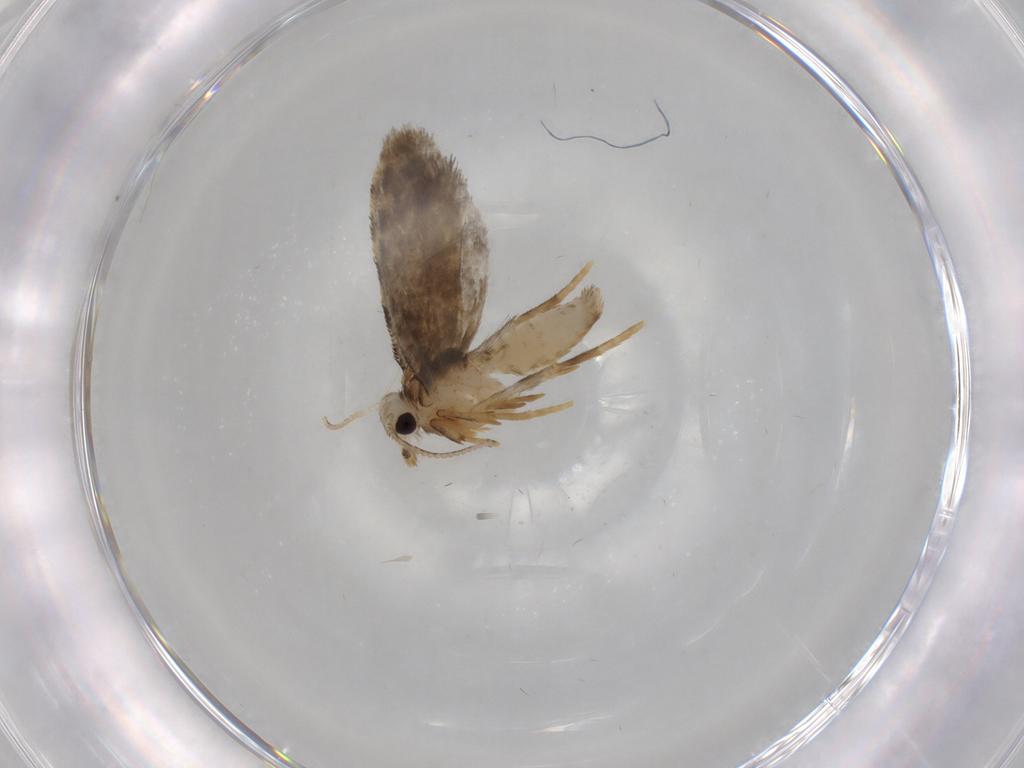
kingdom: Animalia
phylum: Arthropoda
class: Insecta
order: Lepidoptera
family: Psychidae
